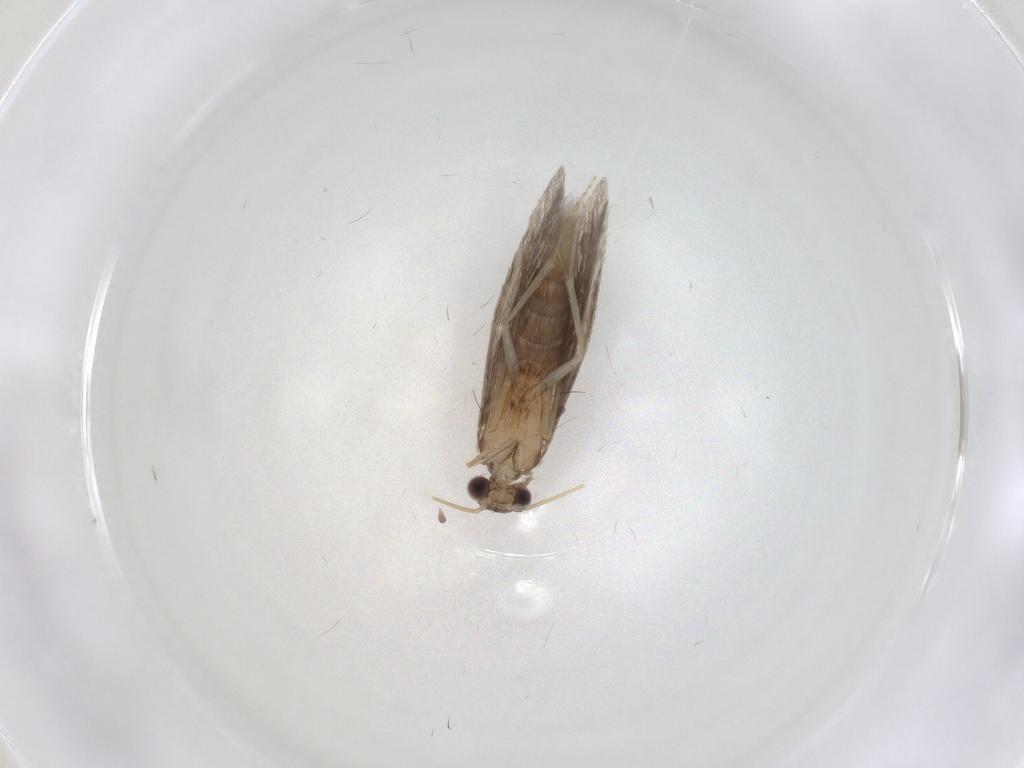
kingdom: Animalia
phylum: Arthropoda
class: Insecta
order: Trichoptera
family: Hydroptilidae
